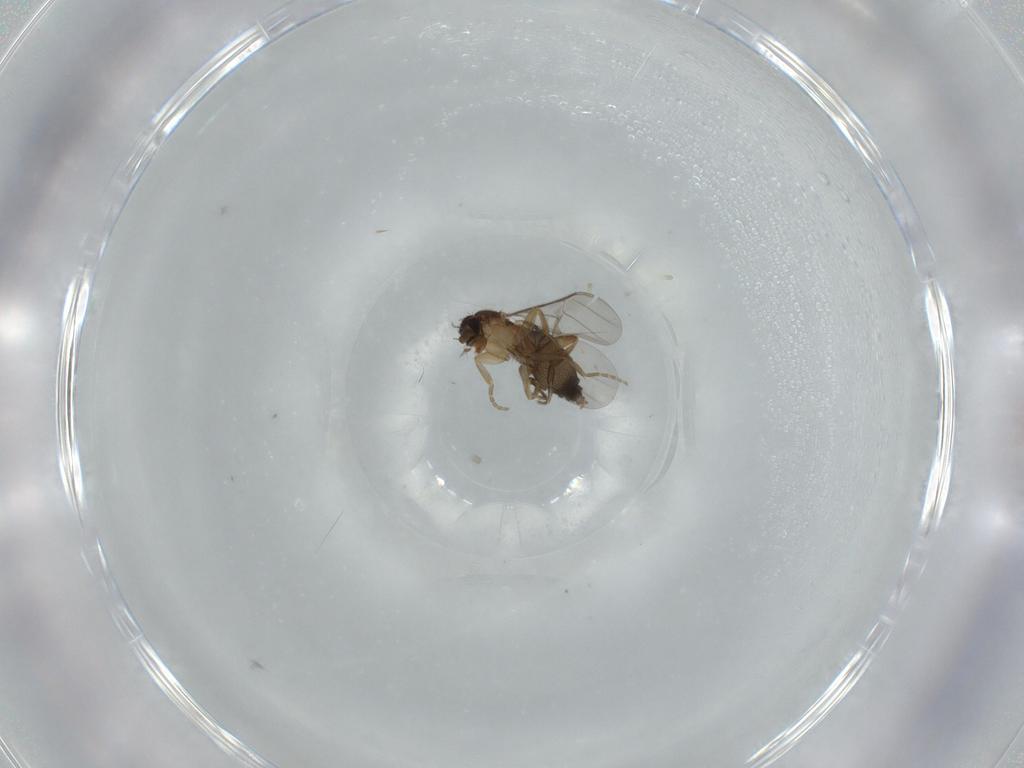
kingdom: Animalia
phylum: Arthropoda
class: Insecta
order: Diptera
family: Phoridae
